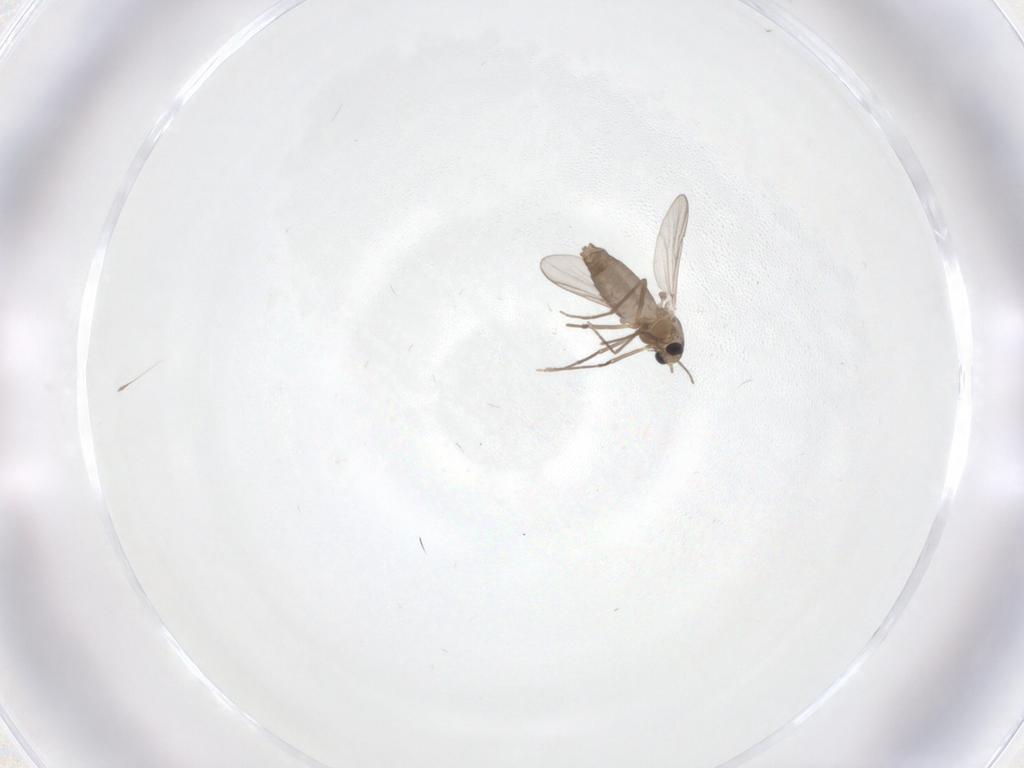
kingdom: Animalia
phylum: Arthropoda
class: Insecta
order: Diptera
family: Chironomidae
